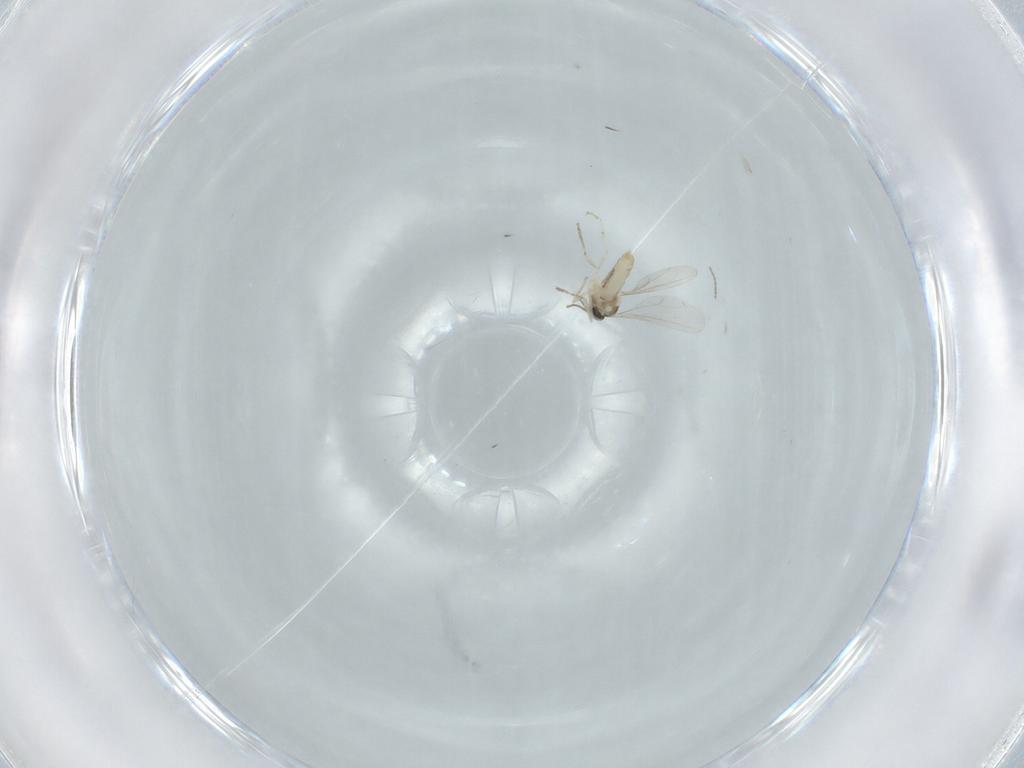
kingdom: Animalia
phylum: Arthropoda
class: Insecta
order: Diptera
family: Cecidomyiidae
